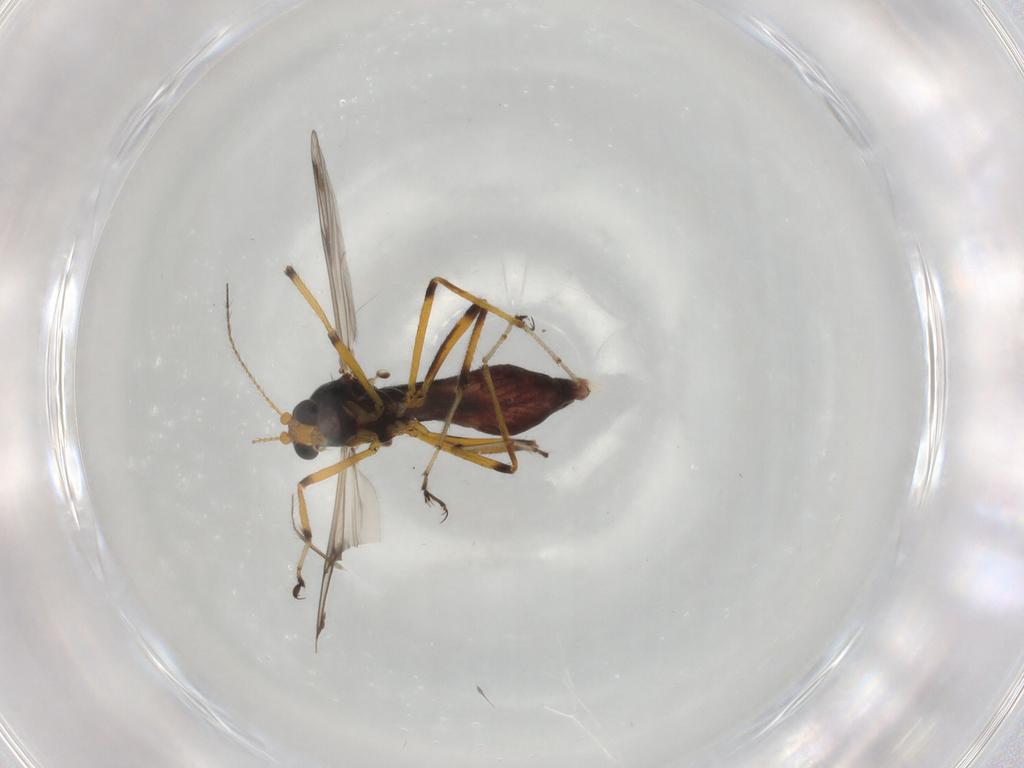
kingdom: Animalia
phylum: Arthropoda
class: Insecta
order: Diptera
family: Ceratopogonidae
